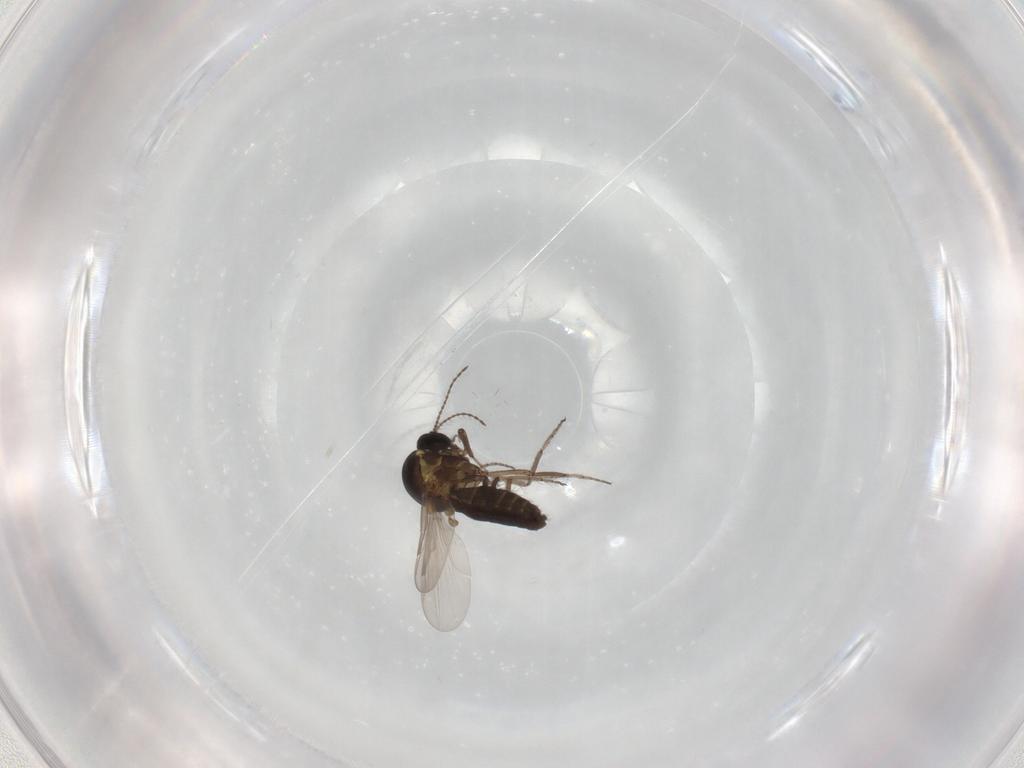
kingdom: Animalia
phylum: Arthropoda
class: Insecta
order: Diptera
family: Ceratopogonidae
